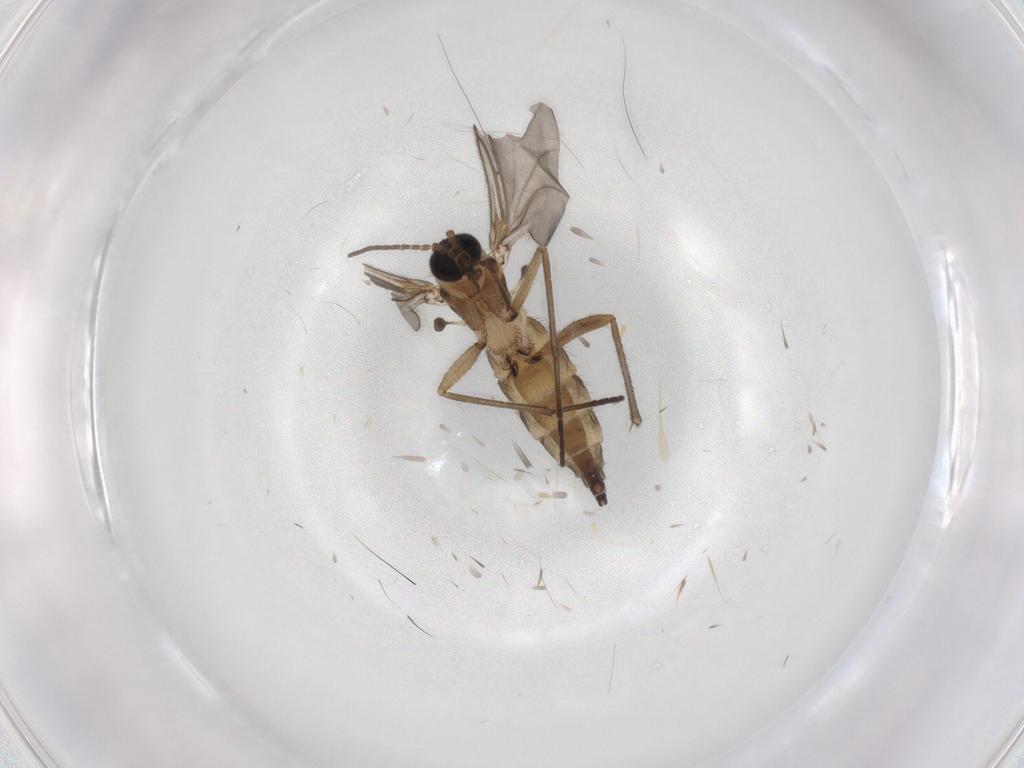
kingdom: Animalia
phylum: Arthropoda
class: Insecta
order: Diptera
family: Sciaridae
